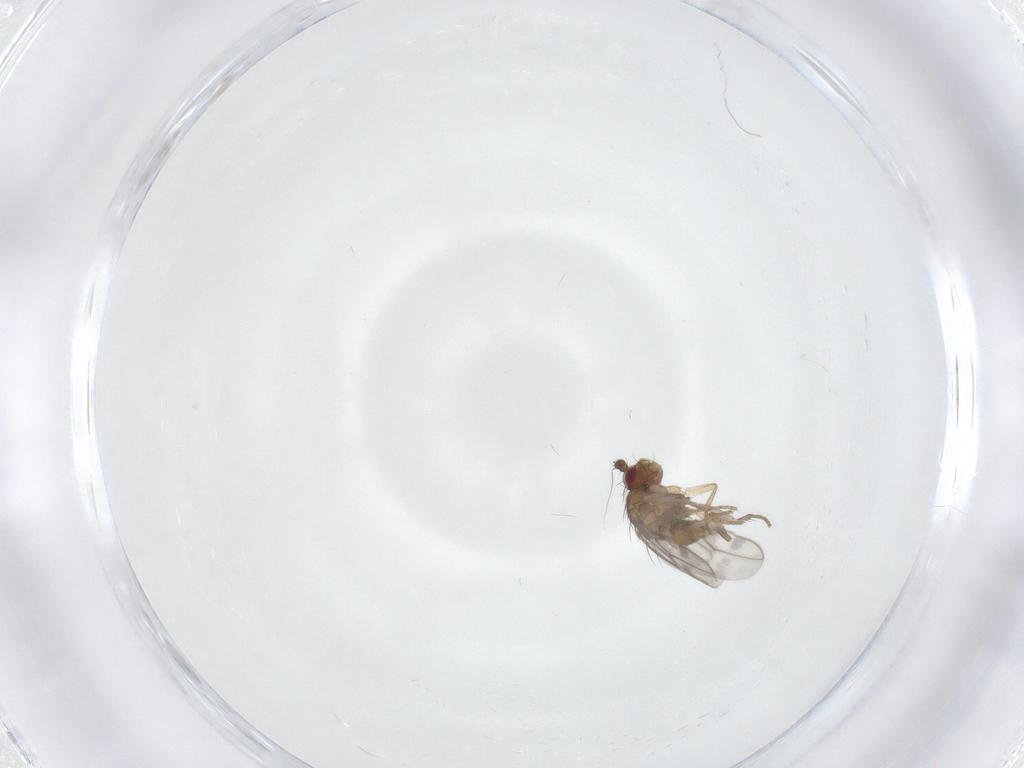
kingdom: Animalia
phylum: Arthropoda
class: Insecta
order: Diptera
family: Sphaeroceridae
